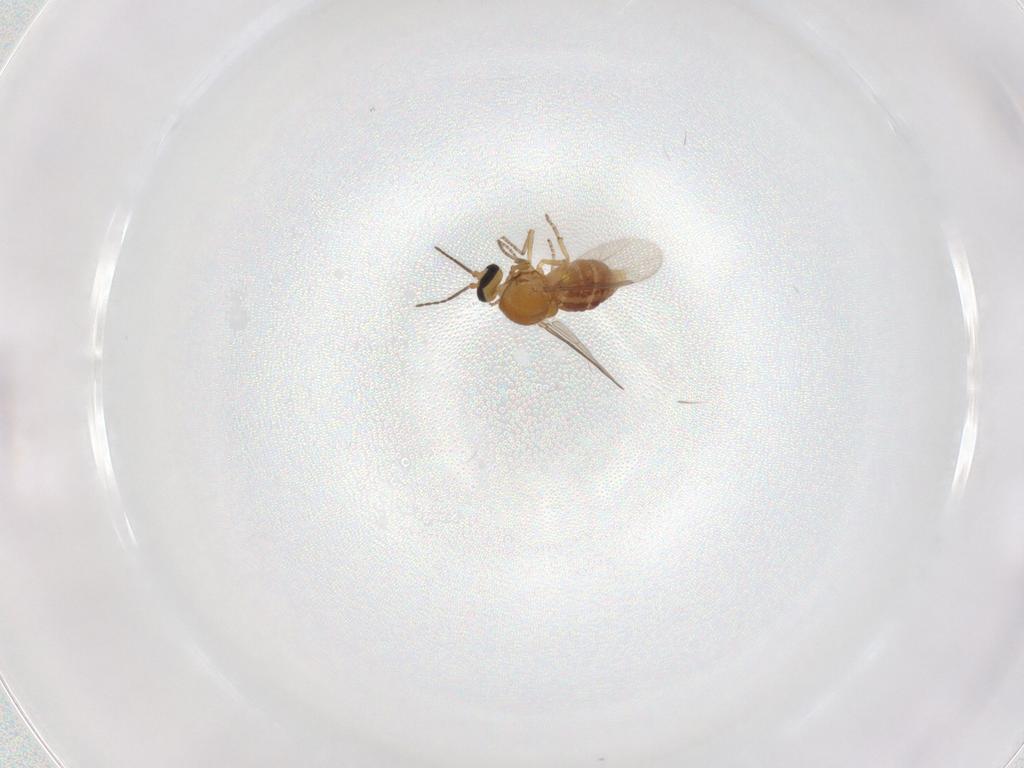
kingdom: Animalia
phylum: Arthropoda
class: Insecta
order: Diptera
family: Ceratopogonidae
